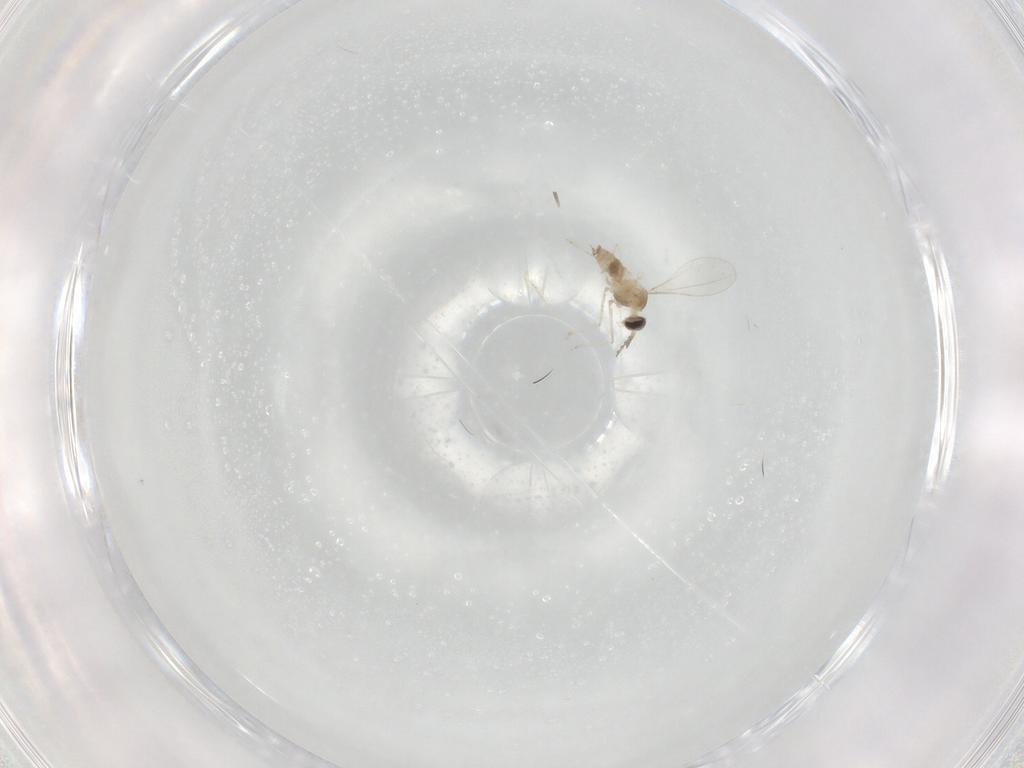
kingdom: Animalia
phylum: Arthropoda
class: Insecta
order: Diptera
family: Cecidomyiidae
